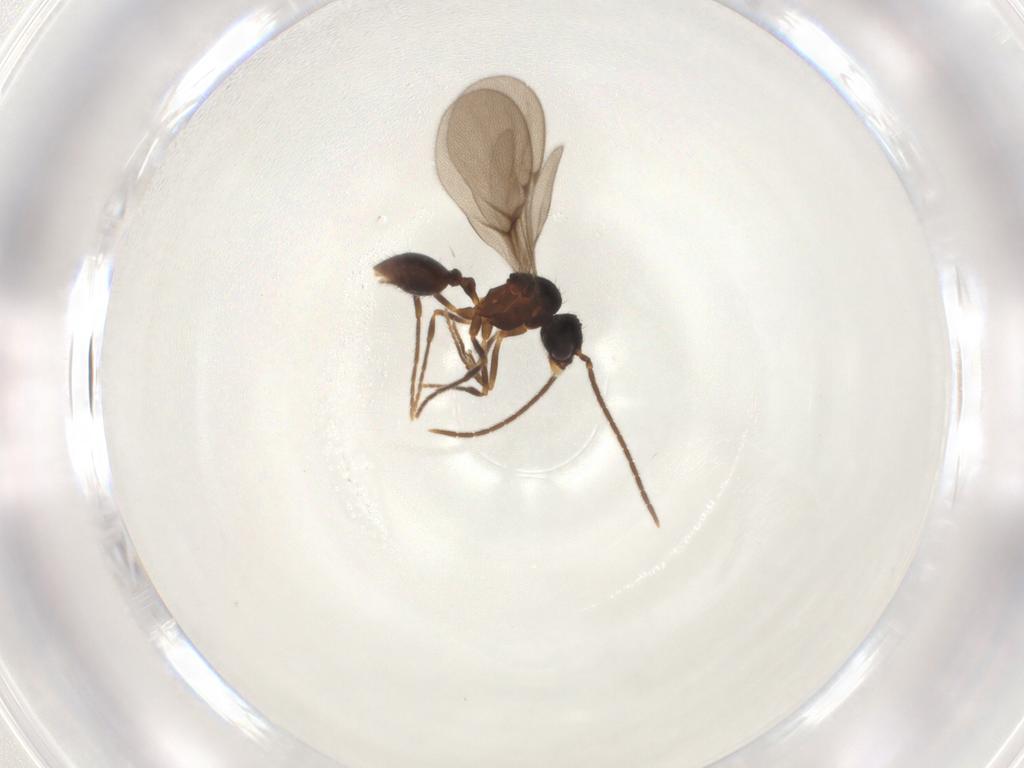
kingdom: Animalia
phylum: Arthropoda
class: Insecta
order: Hymenoptera
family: Formicidae
